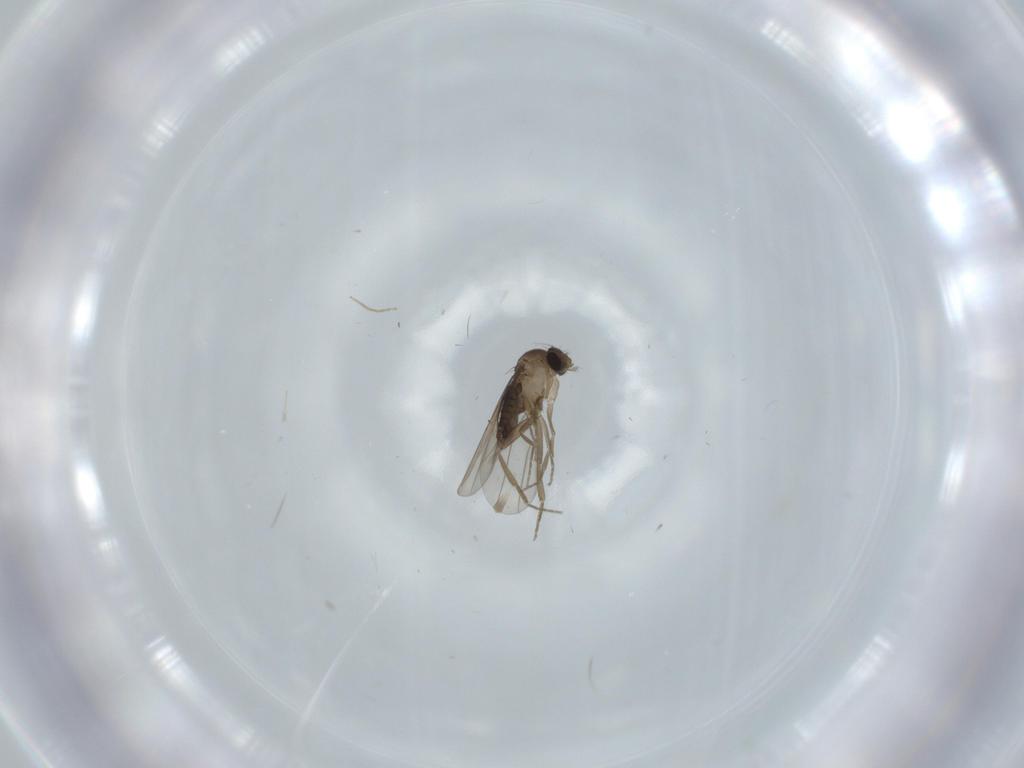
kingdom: Animalia
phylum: Arthropoda
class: Insecta
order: Diptera
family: Phoridae
